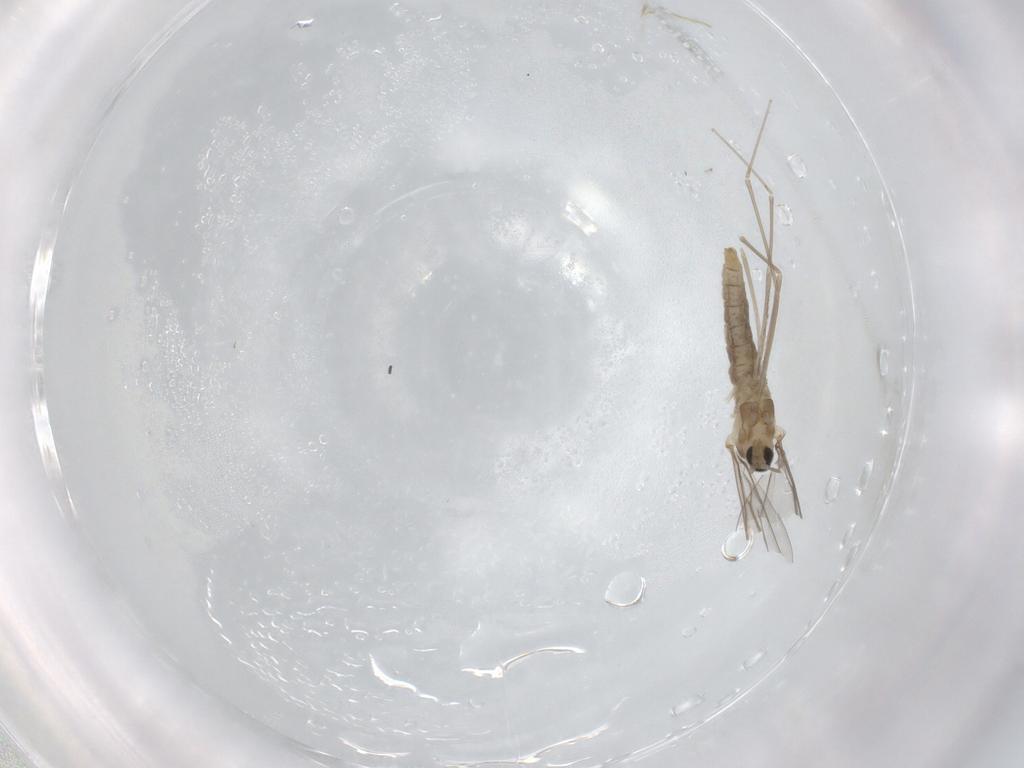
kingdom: Animalia
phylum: Arthropoda
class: Insecta
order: Diptera
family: Cecidomyiidae
